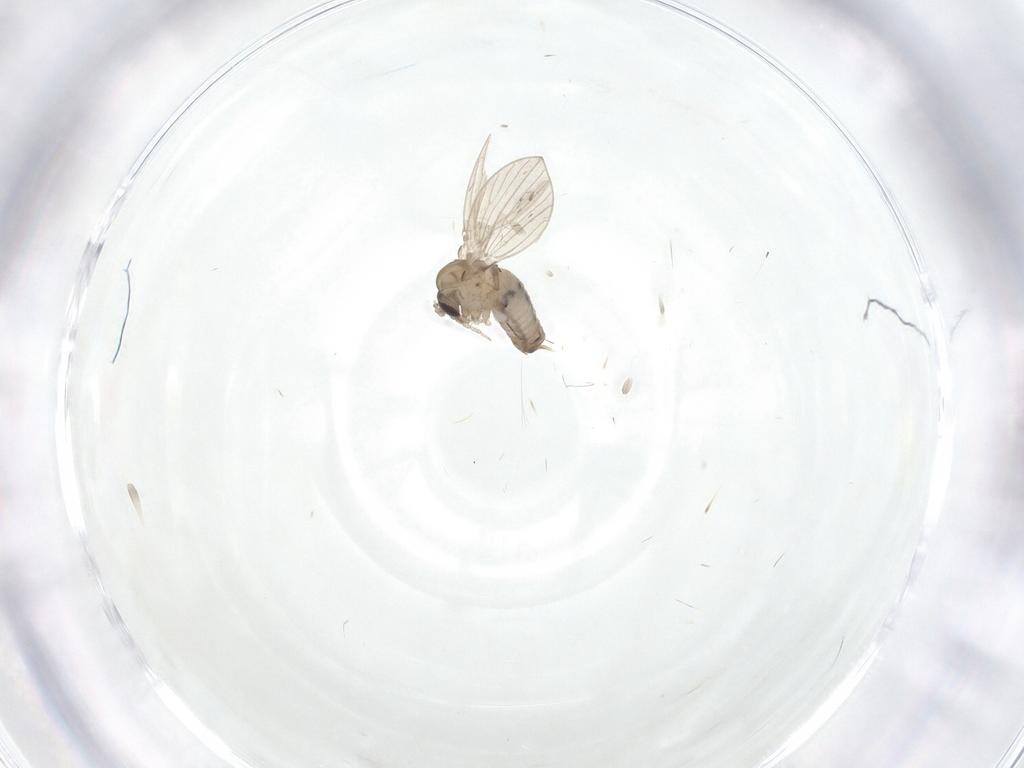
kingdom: Animalia
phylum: Arthropoda
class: Insecta
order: Diptera
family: Psychodidae
